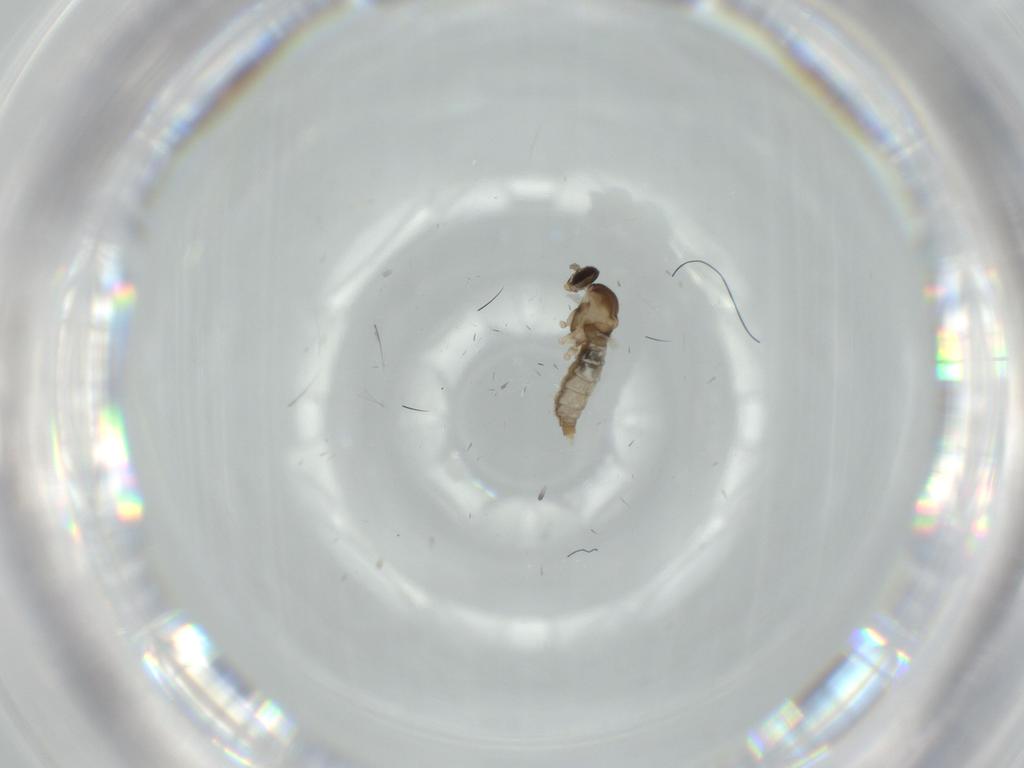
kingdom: Animalia
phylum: Arthropoda
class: Insecta
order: Diptera
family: Cecidomyiidae
